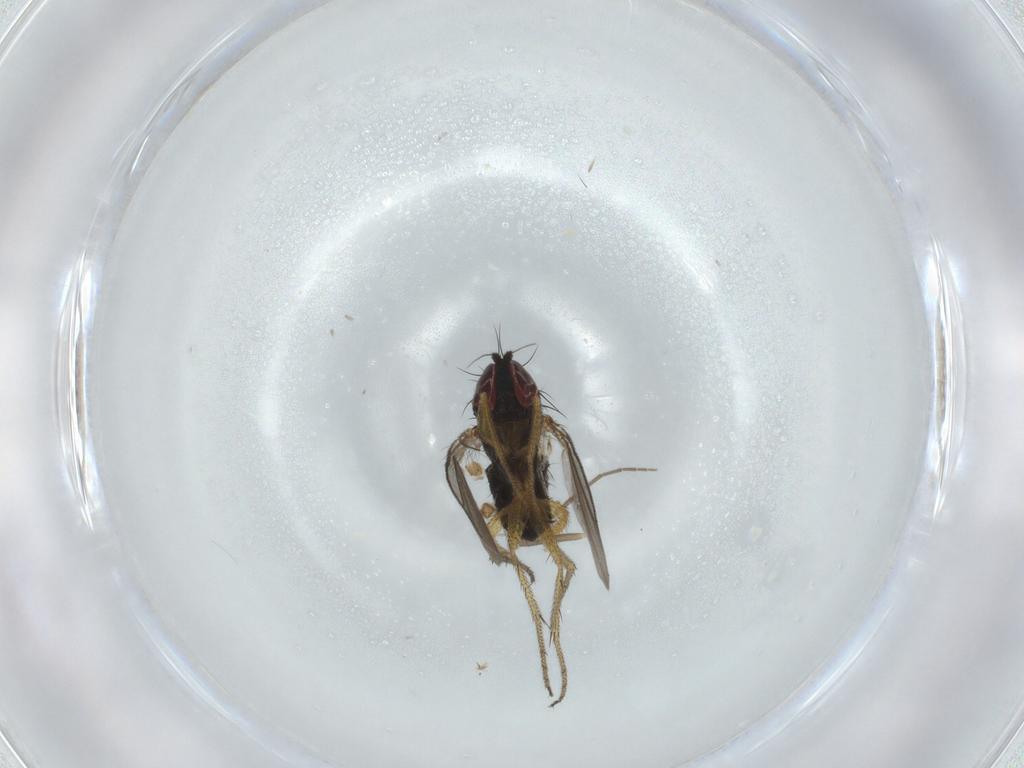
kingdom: Animalia
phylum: Arthropoda
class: Insecta
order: Diptera
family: Chironomidae
